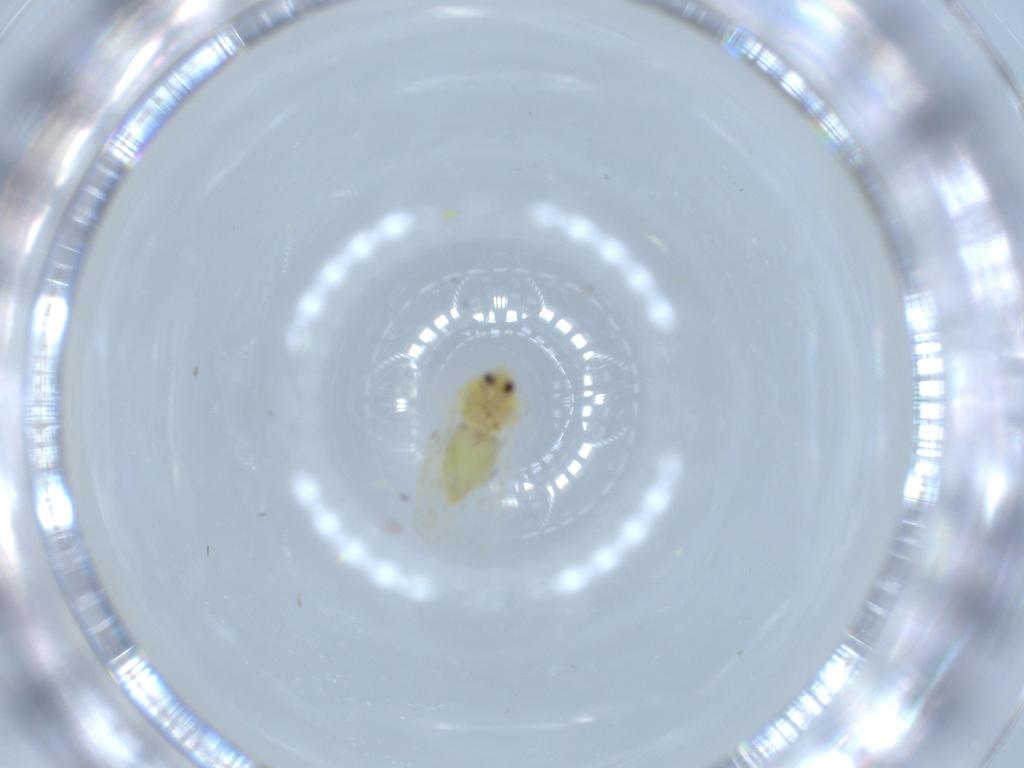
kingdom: Animalia
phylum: Arthropoda
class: Insecta
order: Hemiptera
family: Aleyrodidae
